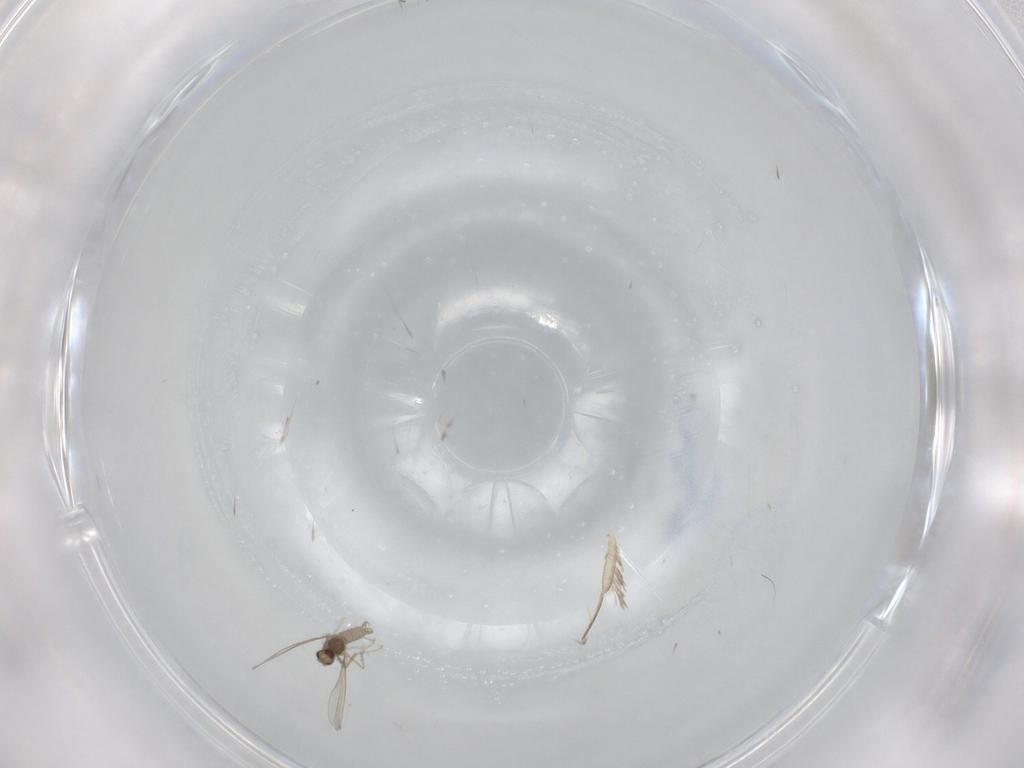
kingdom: Animalia
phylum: Arthropoda
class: Insecta
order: Diptera
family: Cecidomyiidae
